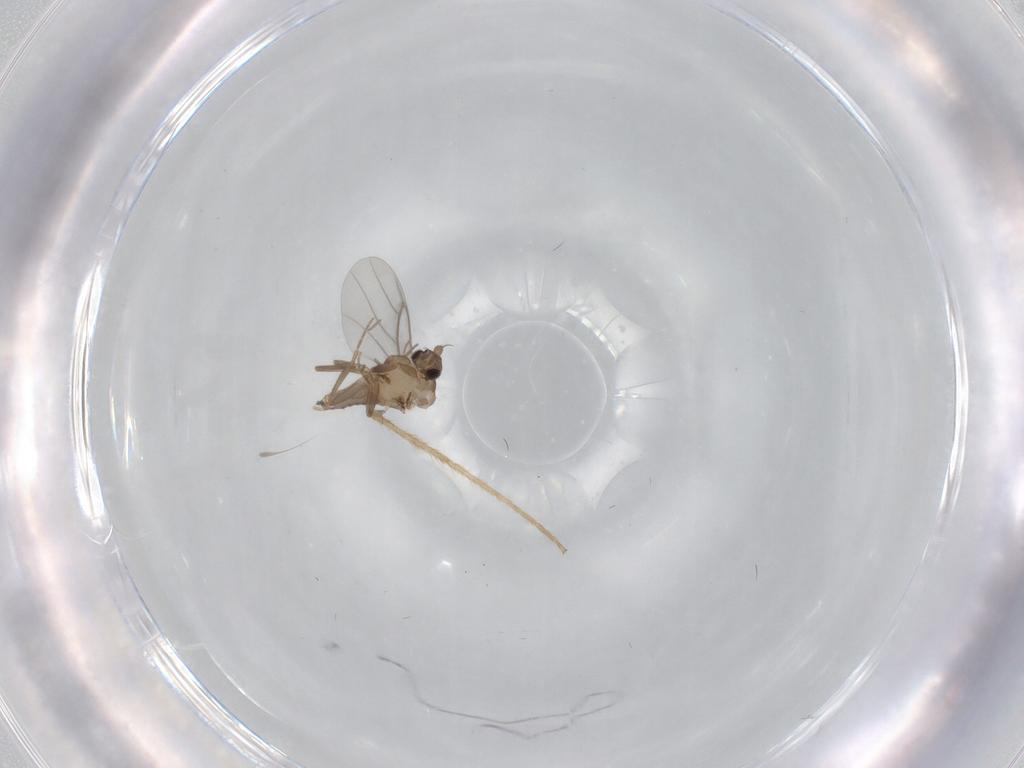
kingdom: Animalia
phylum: Arthropoda
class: Insecta
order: Diptera
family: Chironomidae
